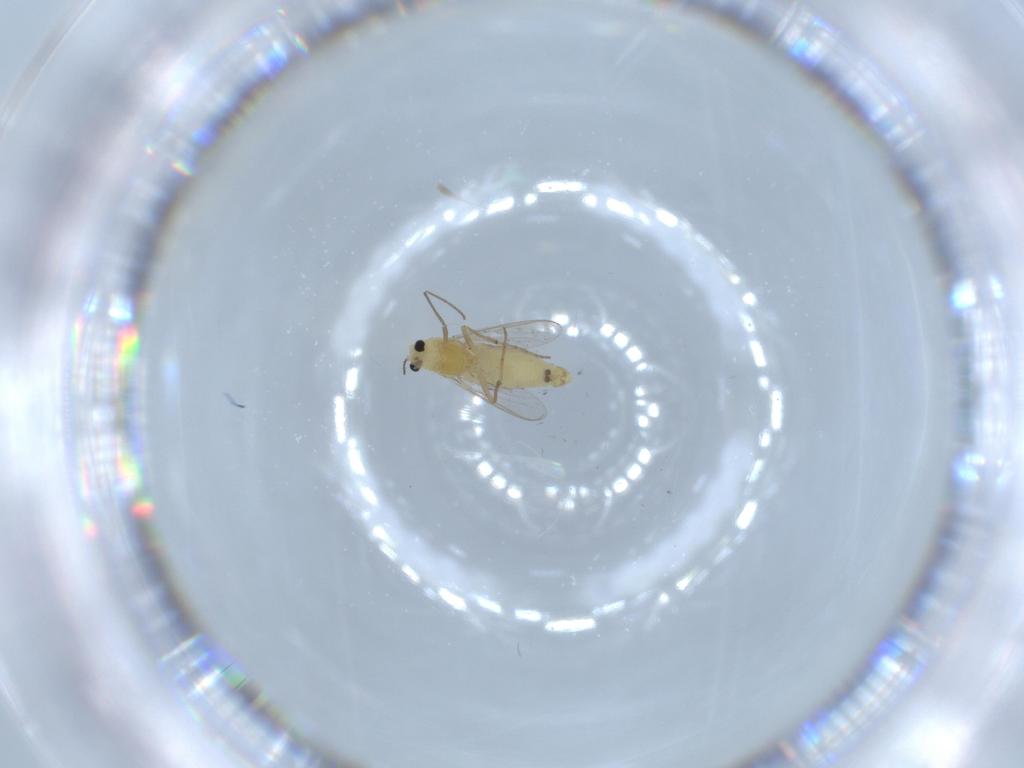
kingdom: Animalia
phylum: Arthropoda
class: Insecta
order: Diptera
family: Chironomidae
